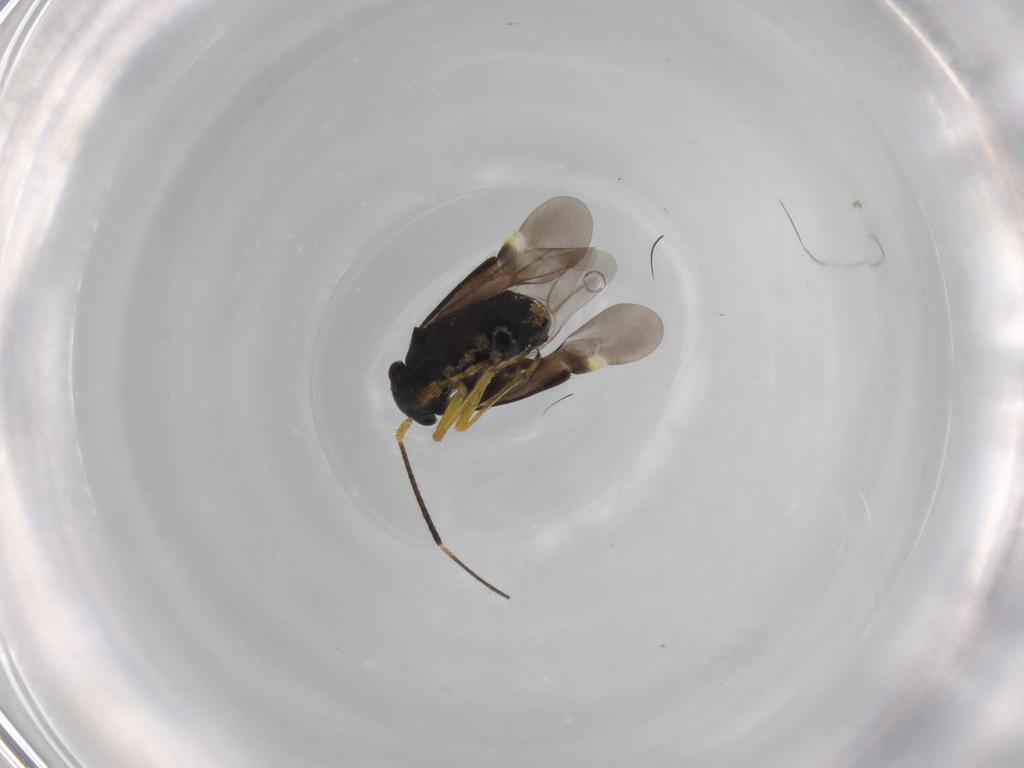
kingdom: Animalia
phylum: Arthropoda
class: Insecta
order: Hemiptera
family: Miridae
